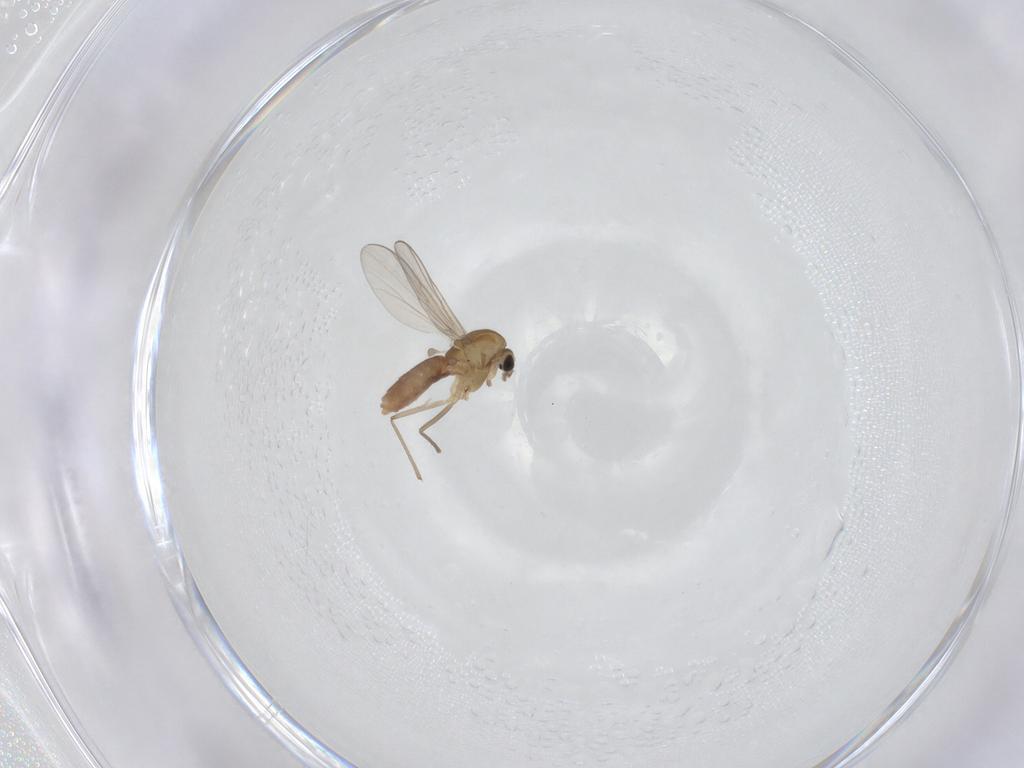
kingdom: Animalia
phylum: Arthropoda
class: Insecta
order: Diptera
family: Chironomidae
